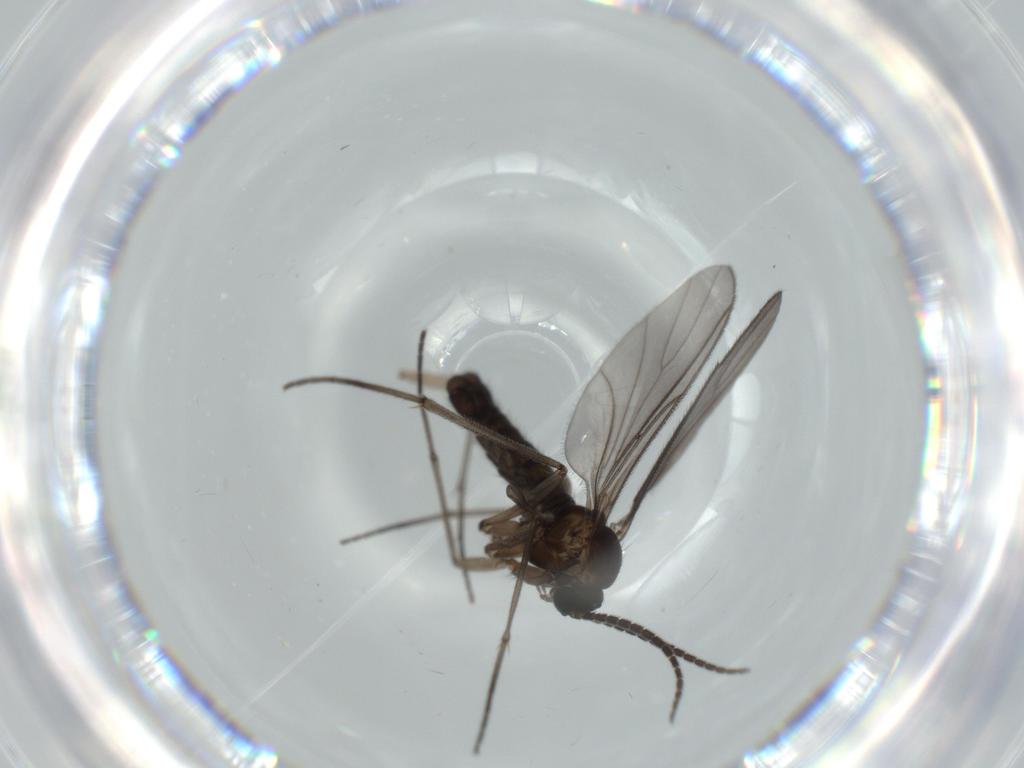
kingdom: Animalia
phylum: Arthropoda
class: Insecta
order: Diptera
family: Sciaridae
